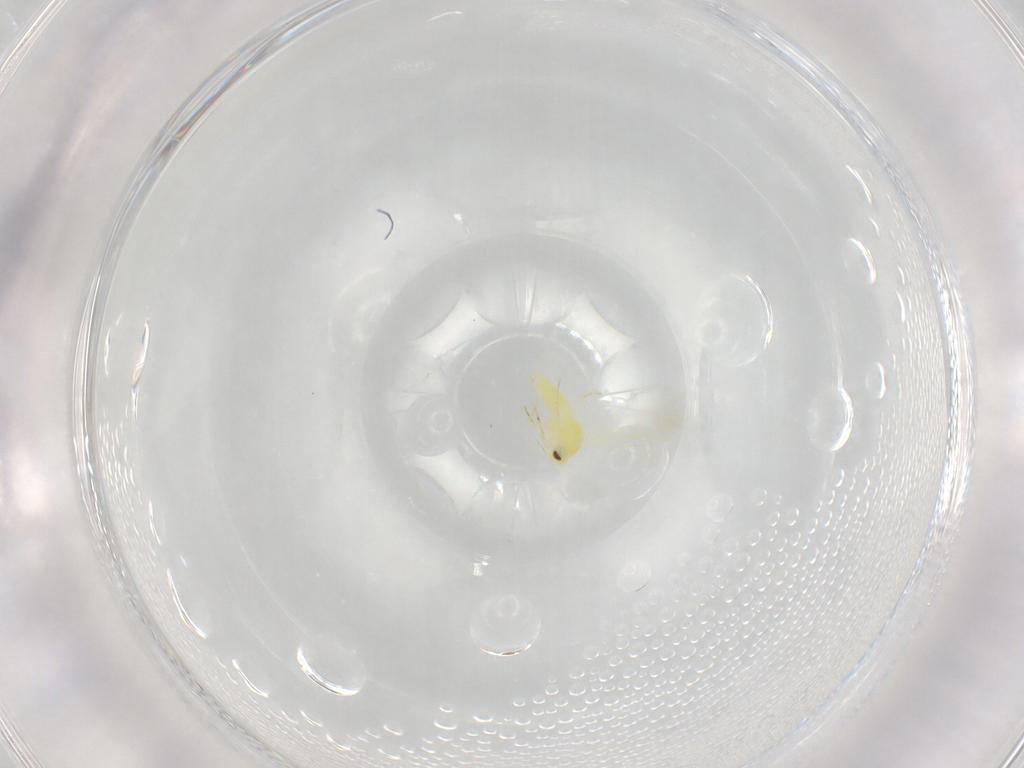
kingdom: Animalia
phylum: Arthropoda
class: Insecta
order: Hemiptera
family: Aleyrodidae
